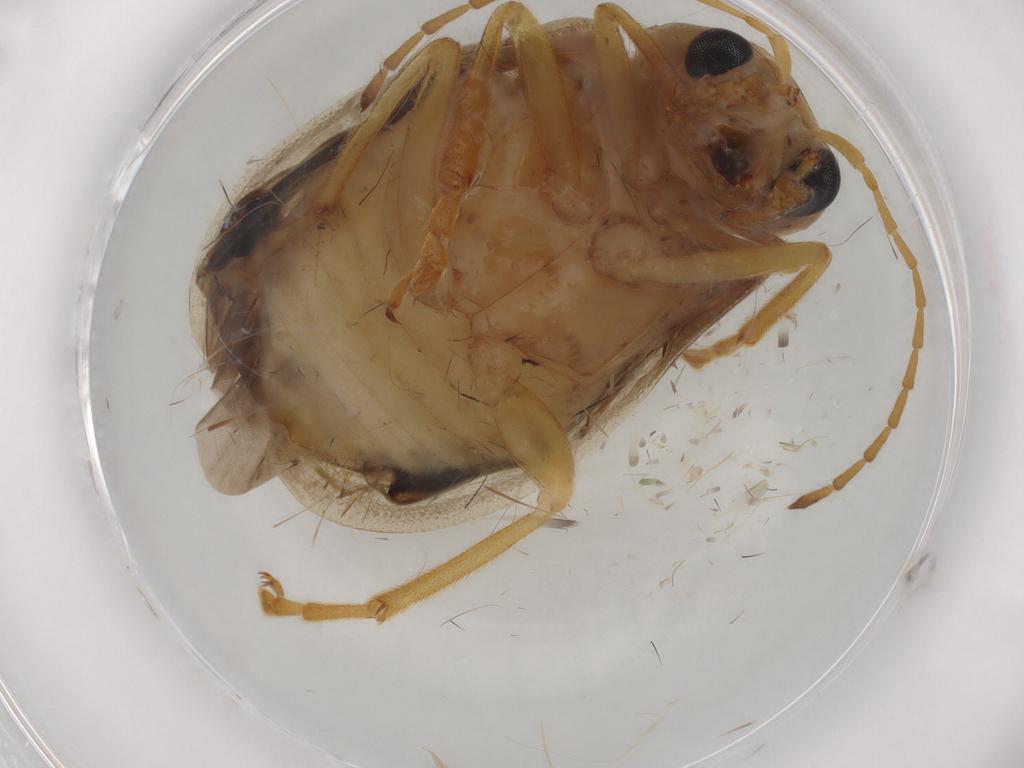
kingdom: Animalia
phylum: Arthropoda
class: Insecta
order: Coleoptera
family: Chrysomelidae
